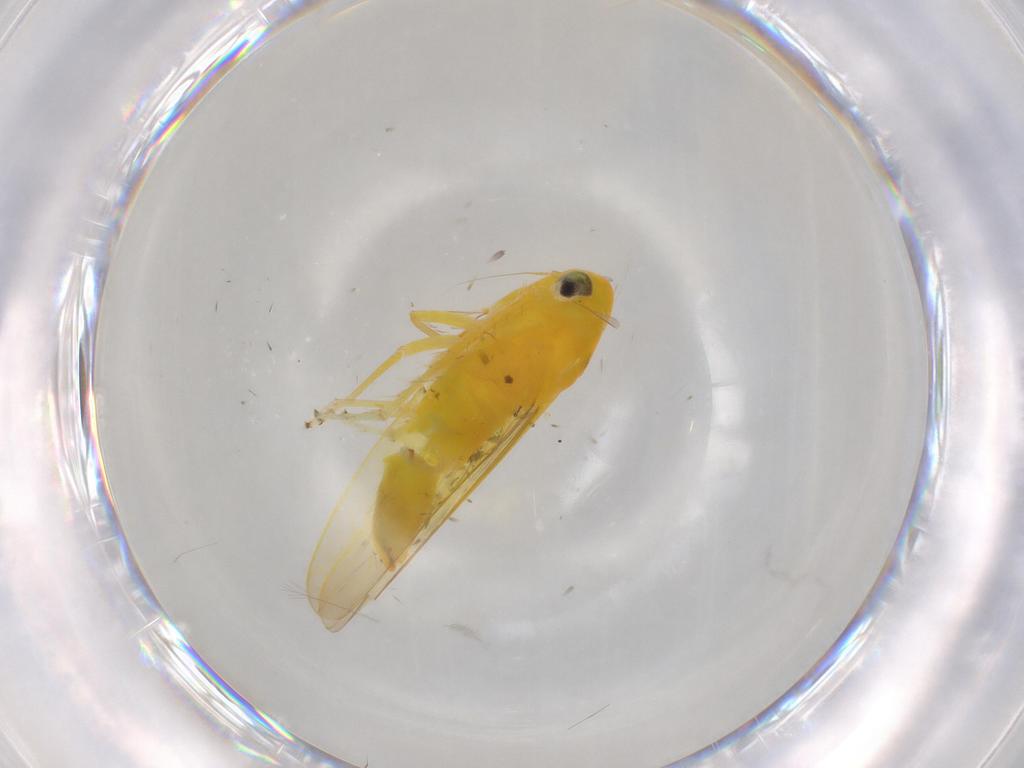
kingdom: Animalia
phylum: Arthropoda
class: Insecta
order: Hemiptera
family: Cicadellidae
